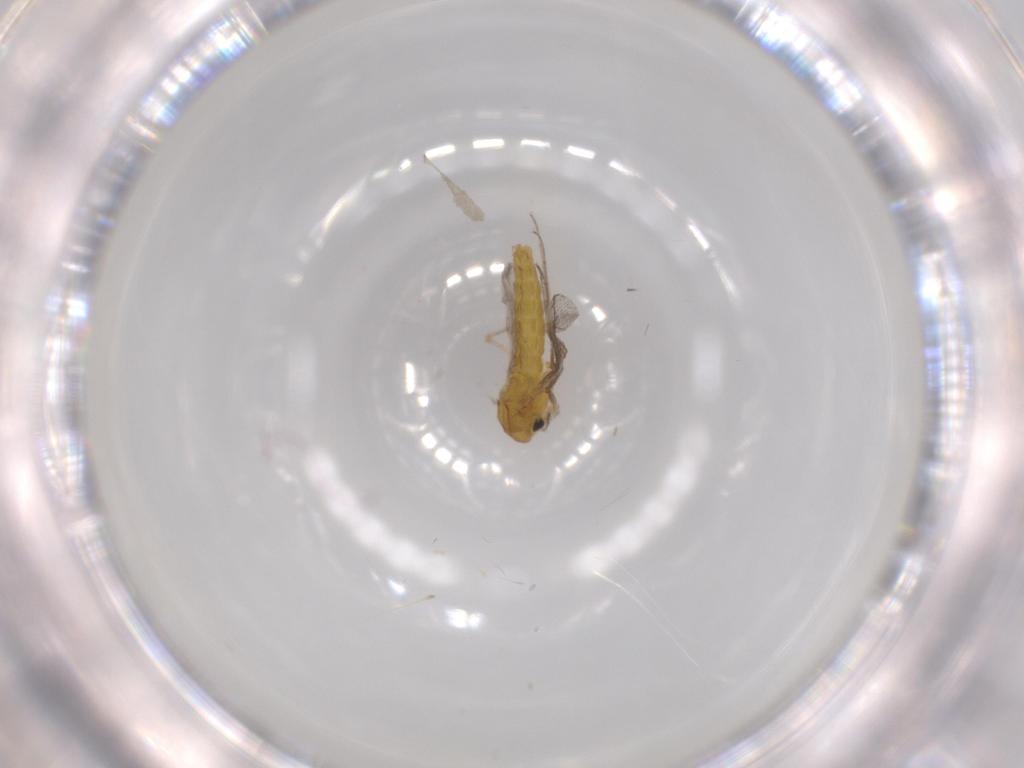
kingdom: Animalia
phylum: Arthropoda
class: Insecta
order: Diptera
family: Chironomidae
